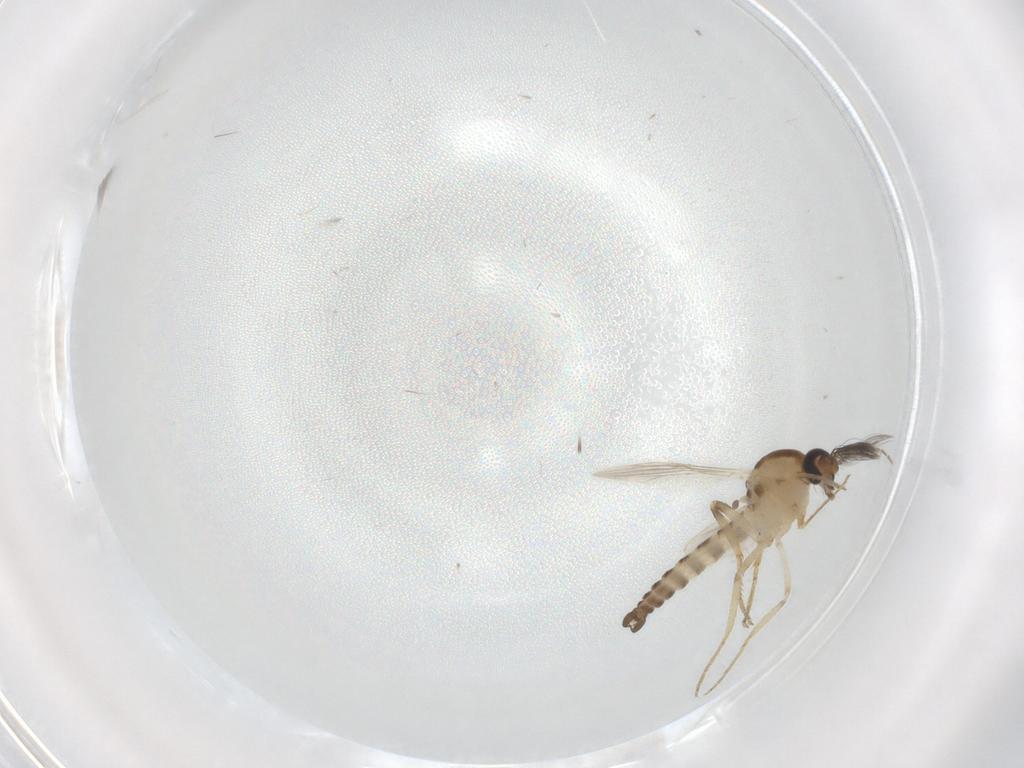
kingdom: Animalia
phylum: Arthropoda
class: Insecta
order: Diptera
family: Ceratopogonidae
